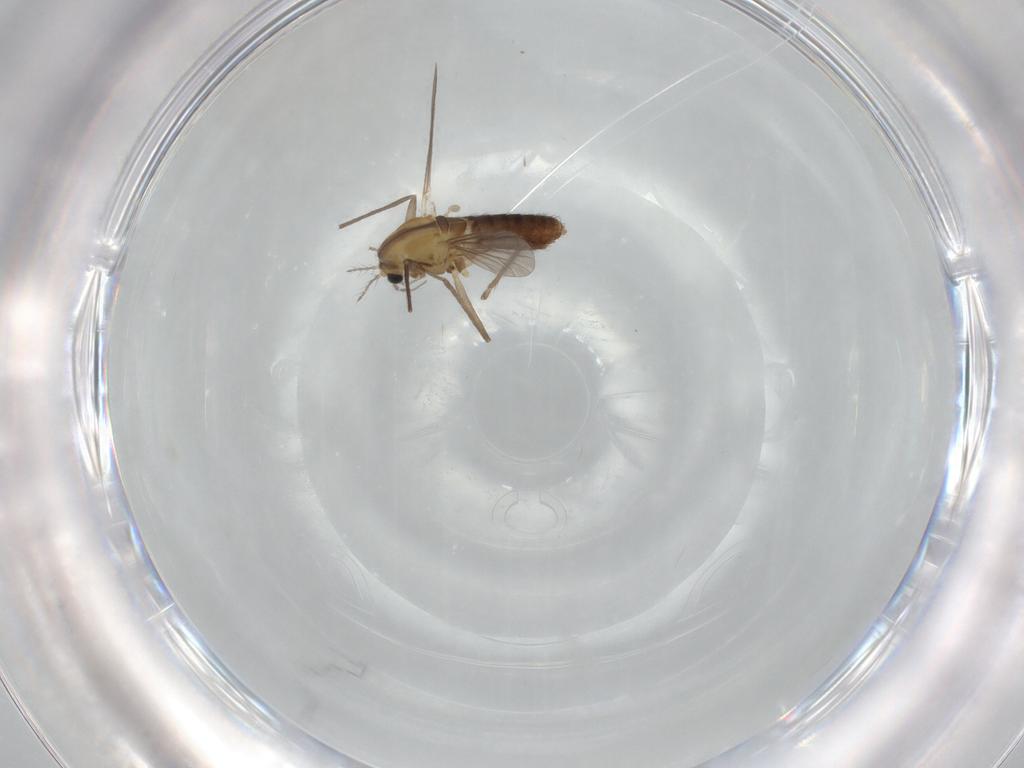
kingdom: Animalia
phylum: Arthropoda
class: Insecta
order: Diptera
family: Chironomidae
